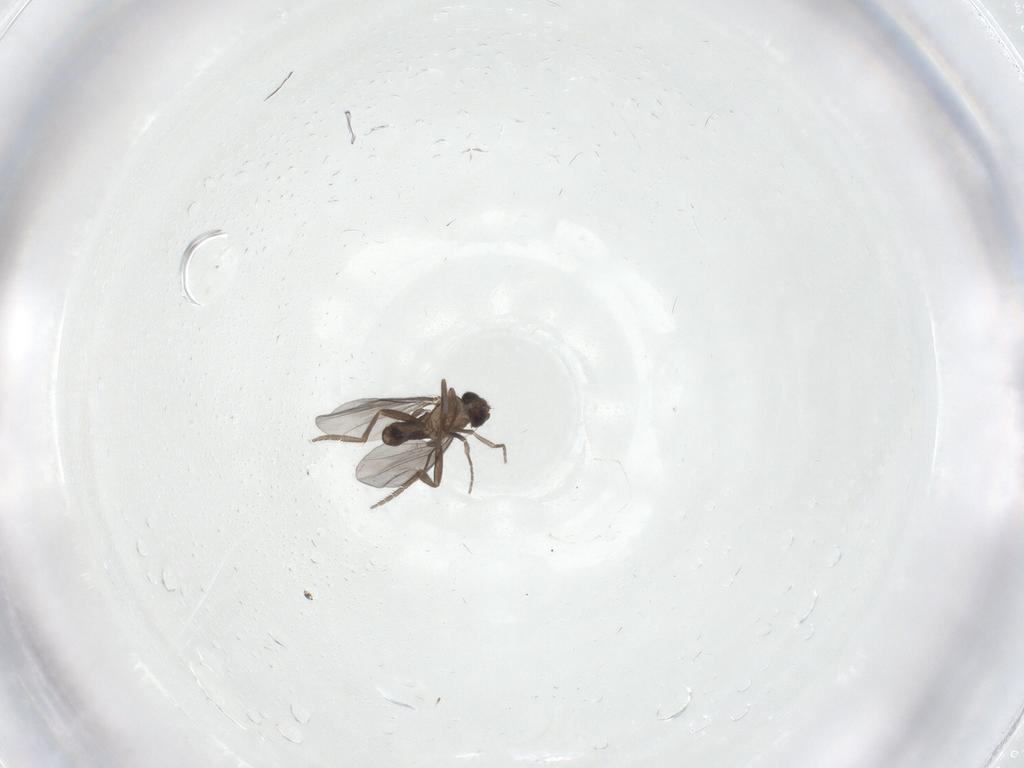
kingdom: Animalia
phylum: Arthropoda
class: Insecta
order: Diptera
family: Phoridae
